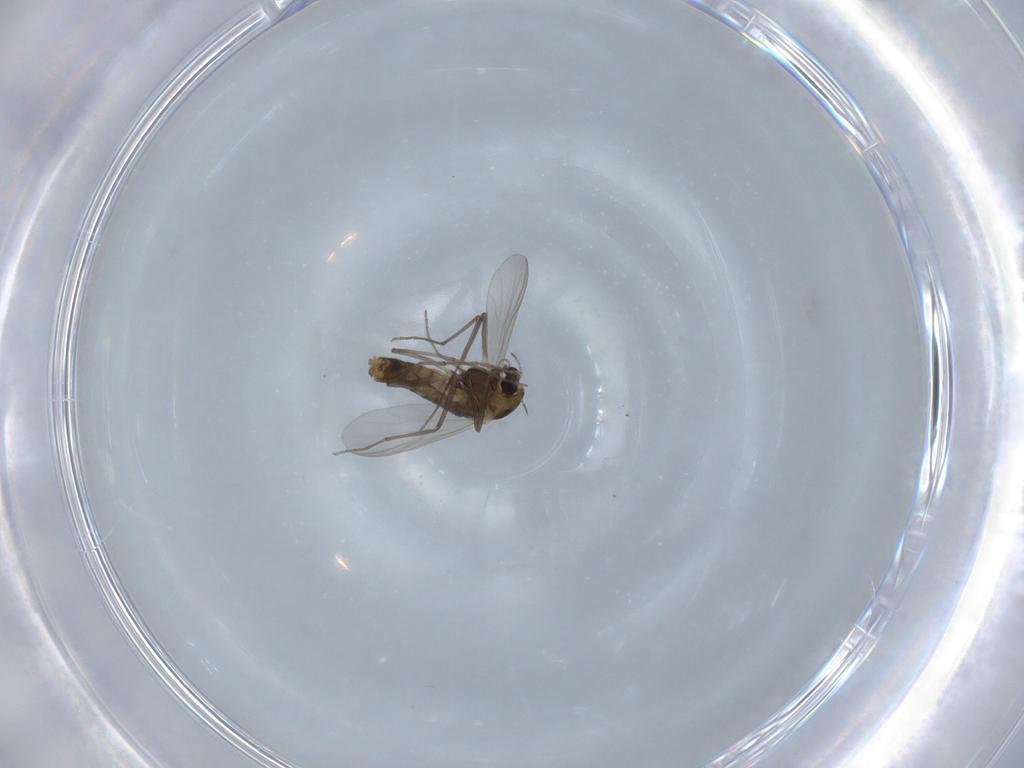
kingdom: Animalia
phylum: Arthropoda
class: Insecta
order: Diptera
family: Chironomidae
